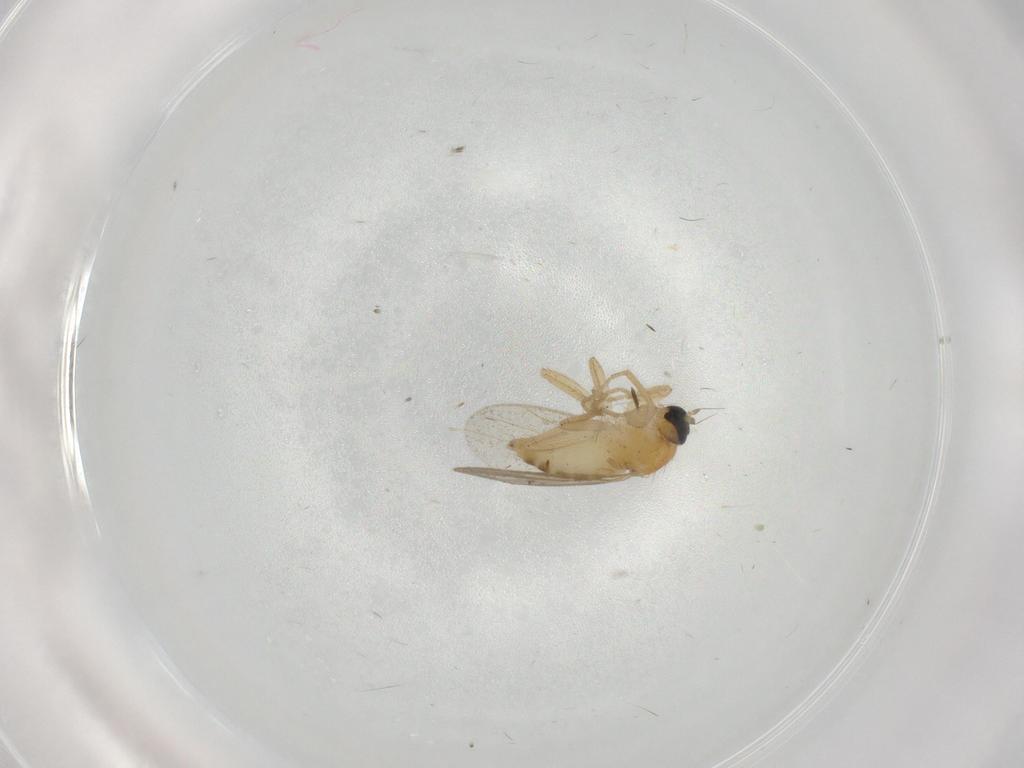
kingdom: Animalia
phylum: Arthropoda
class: Insecta
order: Diptera
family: Hybotidae
